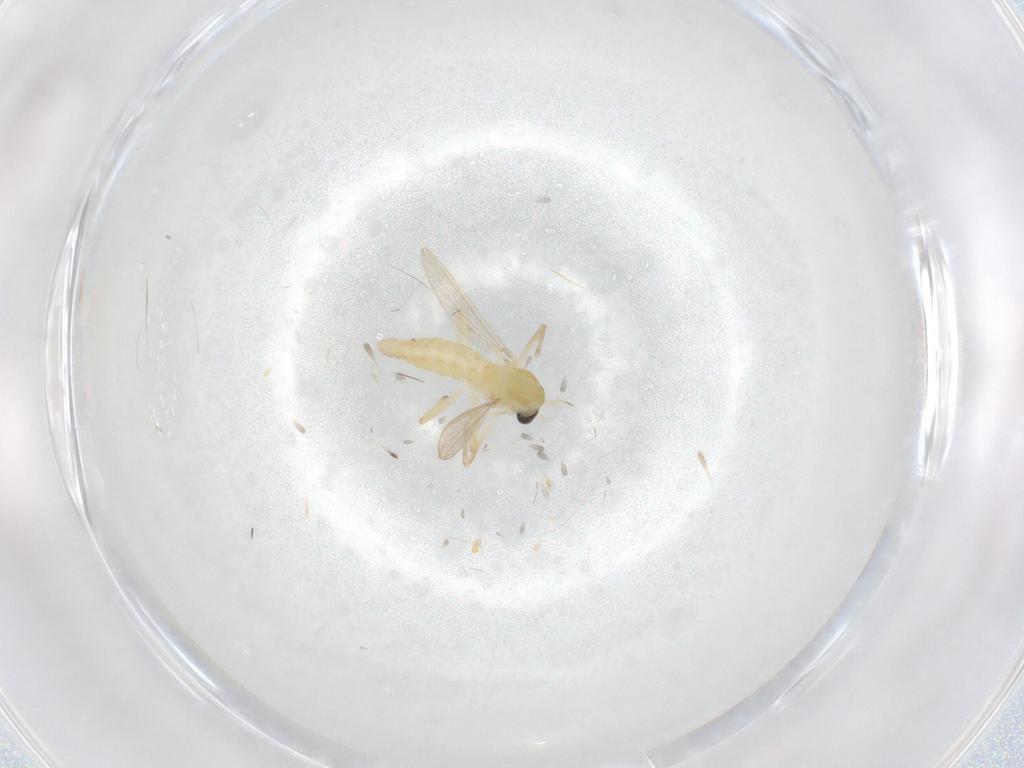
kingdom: Animalia
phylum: Arthropoda
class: Insecta
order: Diptera
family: Chironomidae
